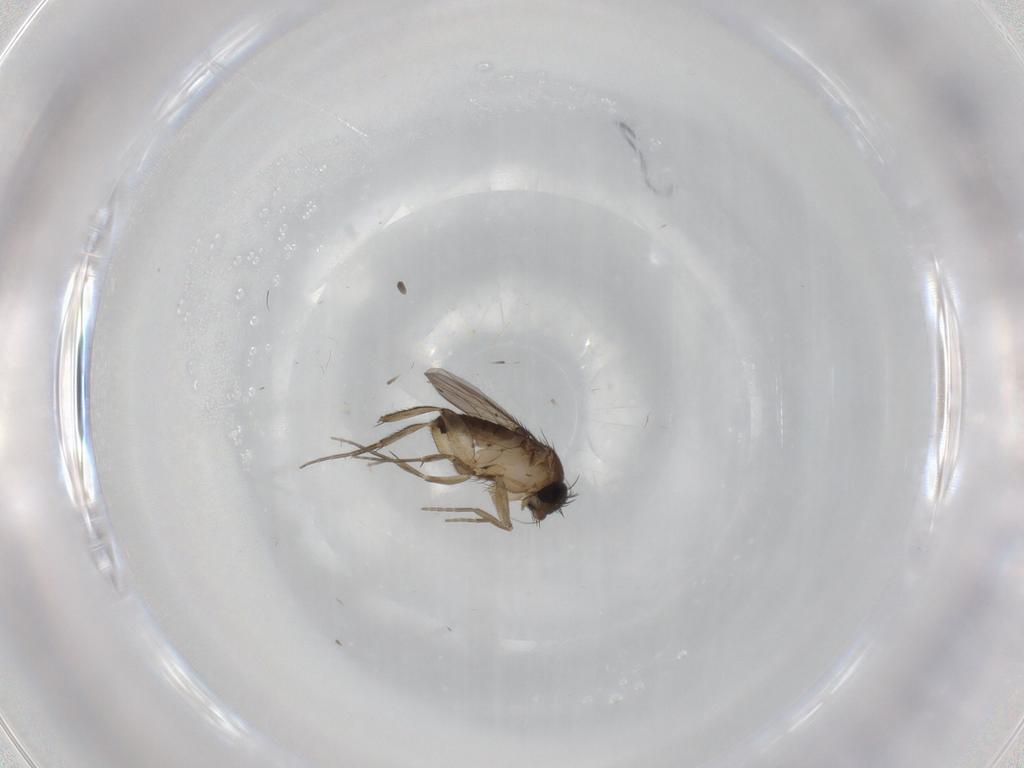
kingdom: Animalia
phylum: Arthropoda
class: Insecta
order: Diptera
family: Phoridae
